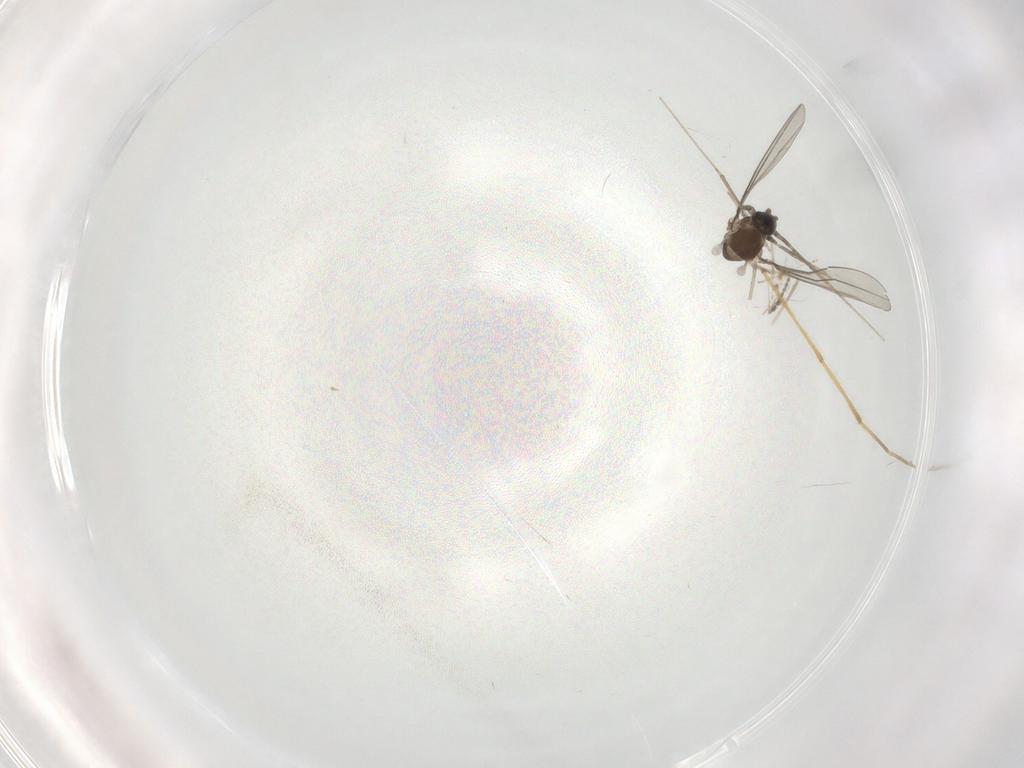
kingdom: Animalia
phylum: Arthropoda
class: Insecta
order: Diptera
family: Cecidomyiidae
